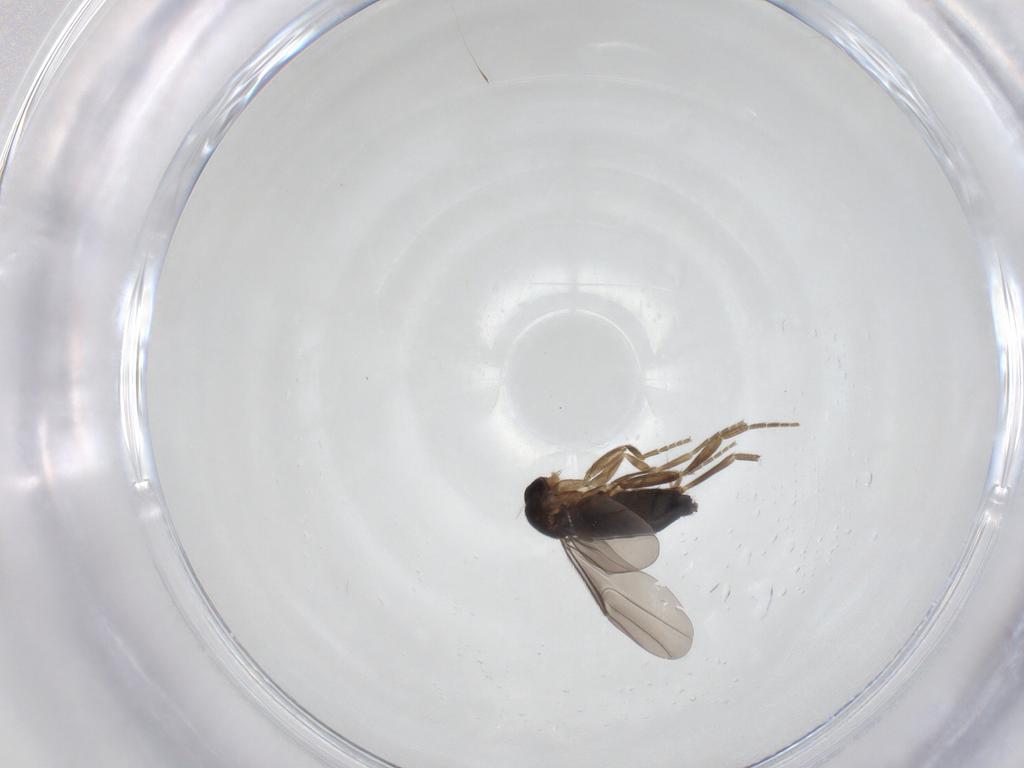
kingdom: Animalia
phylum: Arthropoda
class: Insecta
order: Diptera
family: Phoridae
